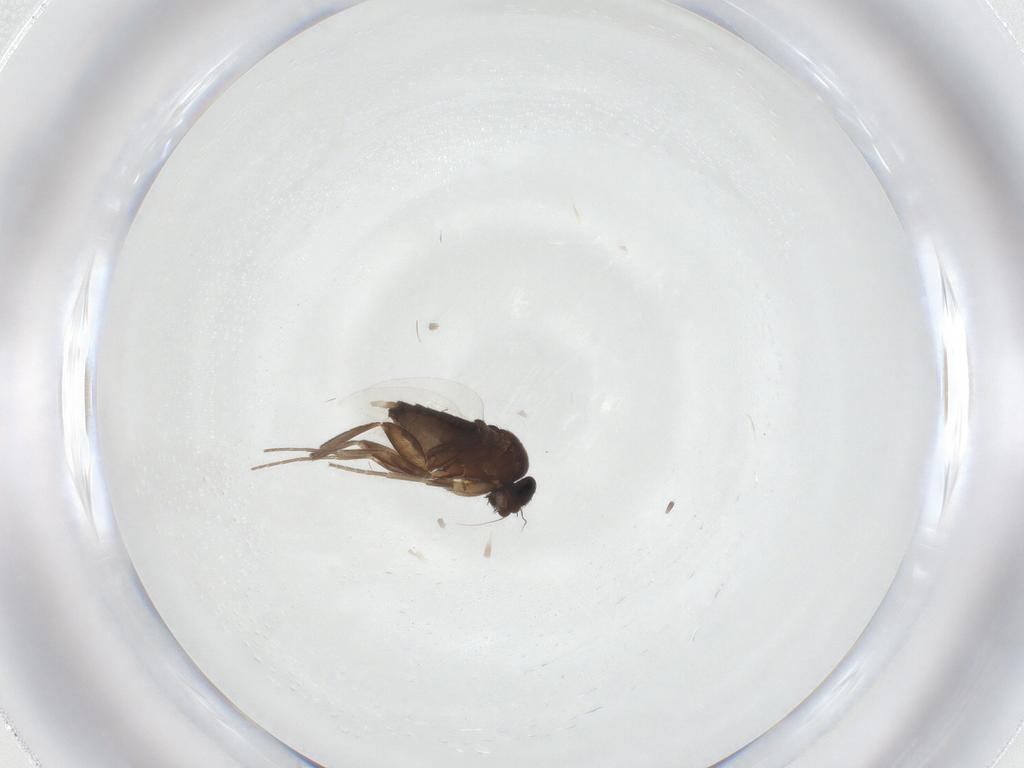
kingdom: Animalia
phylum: Arthropoda
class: Insecta
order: Diptera
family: Phoridae
